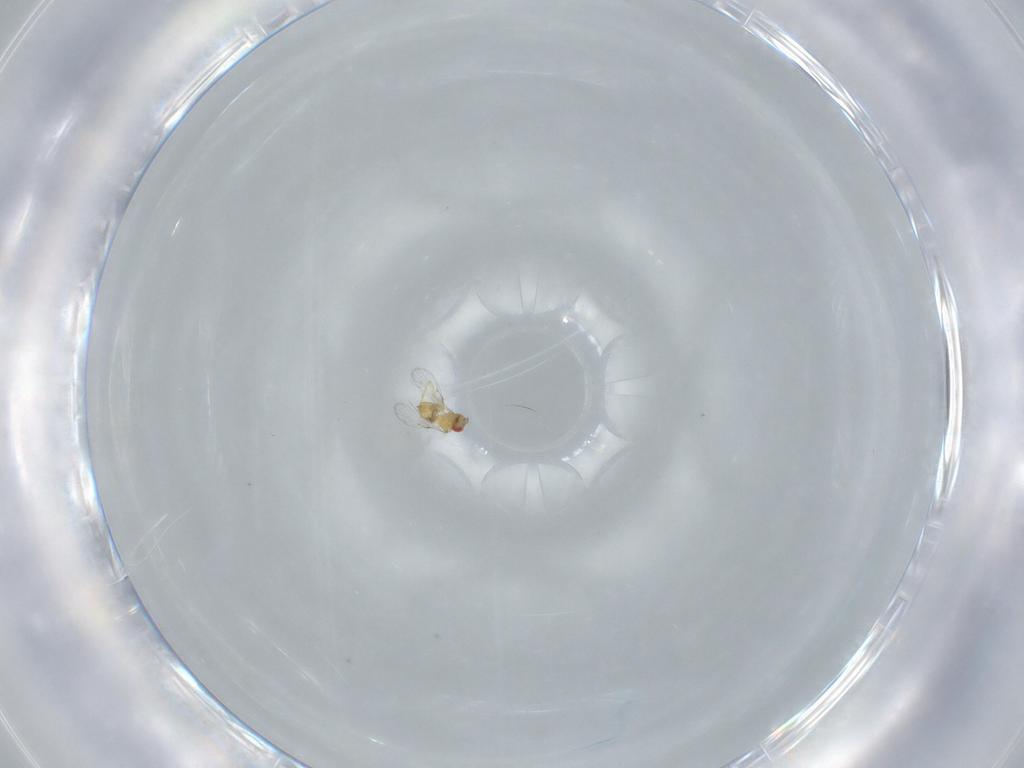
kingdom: Animalia
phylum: Arthropoda
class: Insecta
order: Hymenoptera
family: Trichogrammatidae
